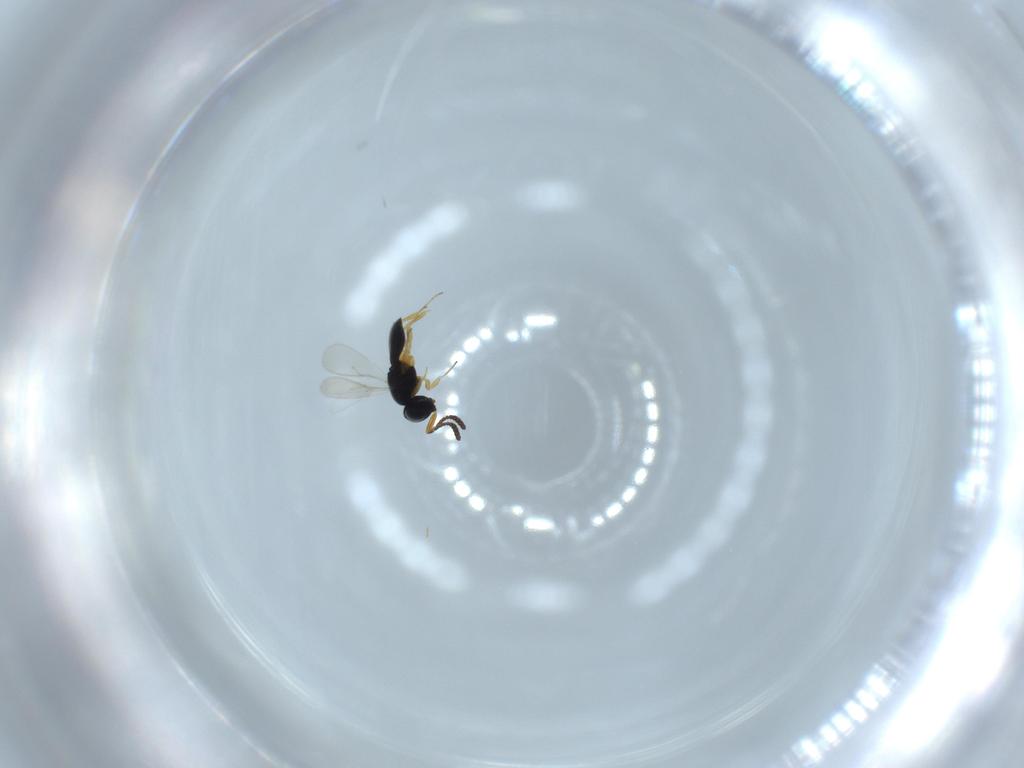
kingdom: Animalia
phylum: Arthropoda
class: Insecta
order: Hymenoptera
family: Scelionidae
